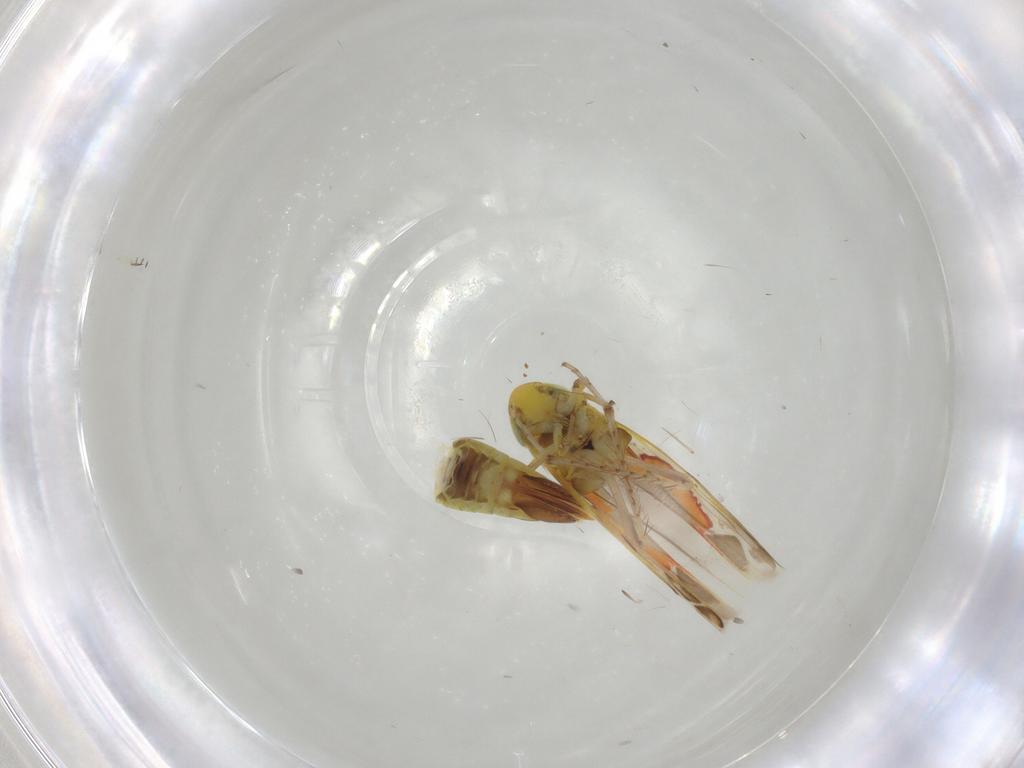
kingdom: Animalia
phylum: Arthropoda
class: Insecta
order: Hemiptera
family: Cicadellidae
